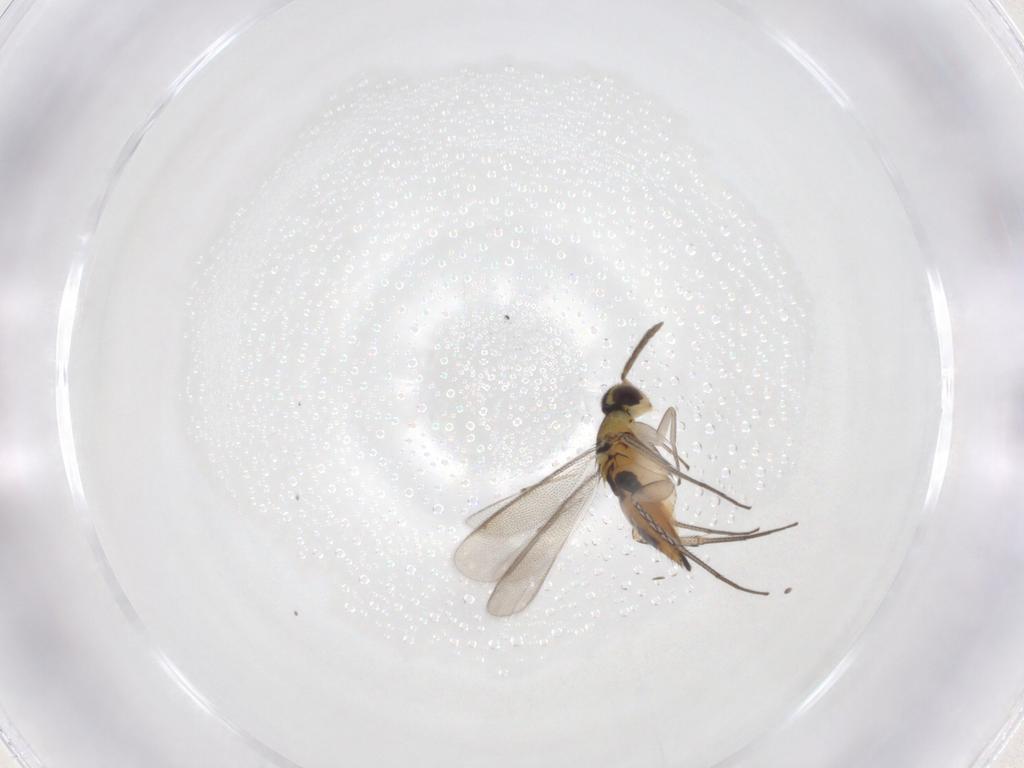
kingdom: Animalia
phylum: Arthropoda
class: Insecta
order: Hymenoptera
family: Eulophidae
